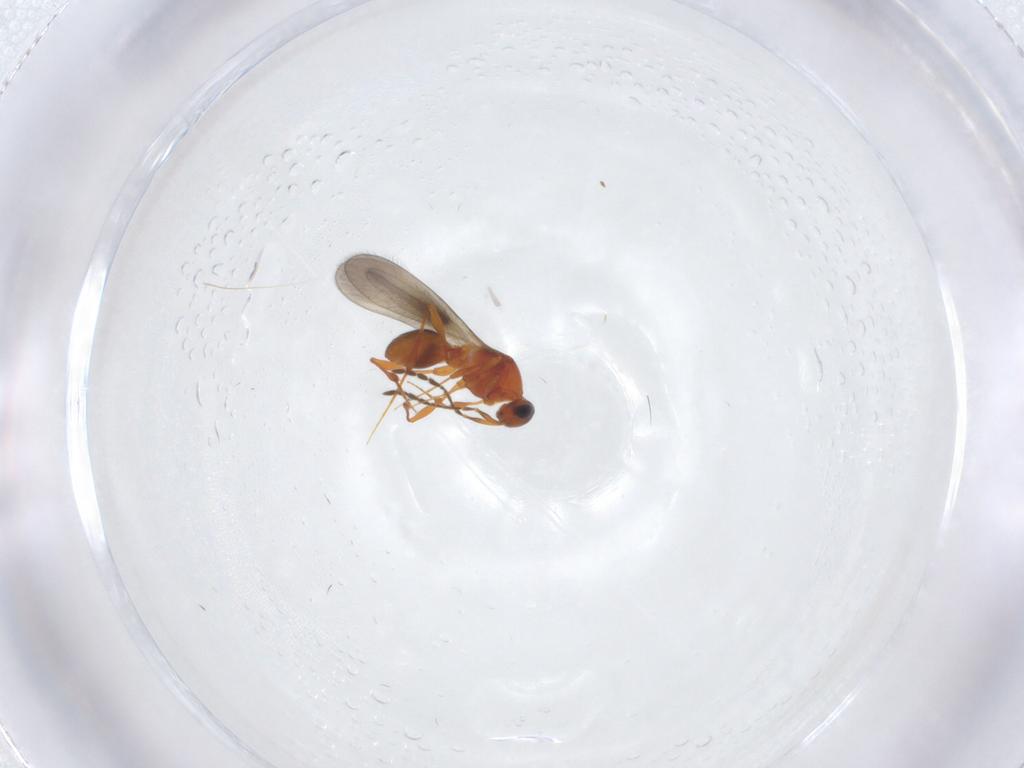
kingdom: Animalia
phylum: Arthropoda
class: Insecta
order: Hymenoptera
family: Platygastridae
